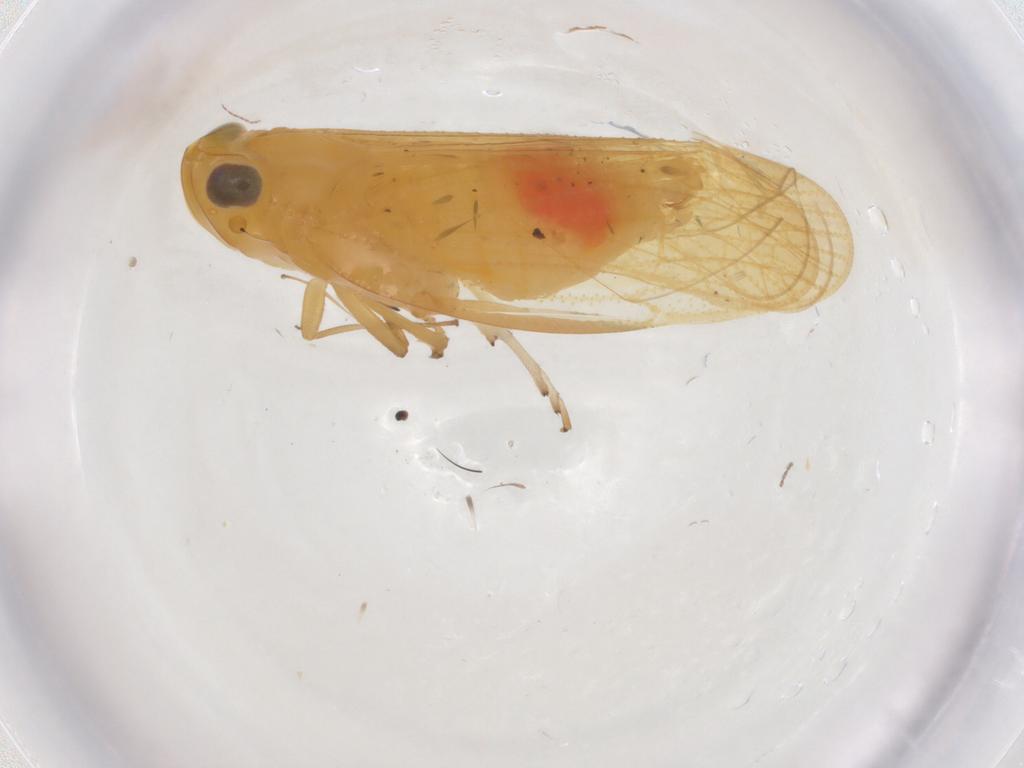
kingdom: Animalia
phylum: Arthropoda
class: Insecta
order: Hemiptera
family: Cixiidae
